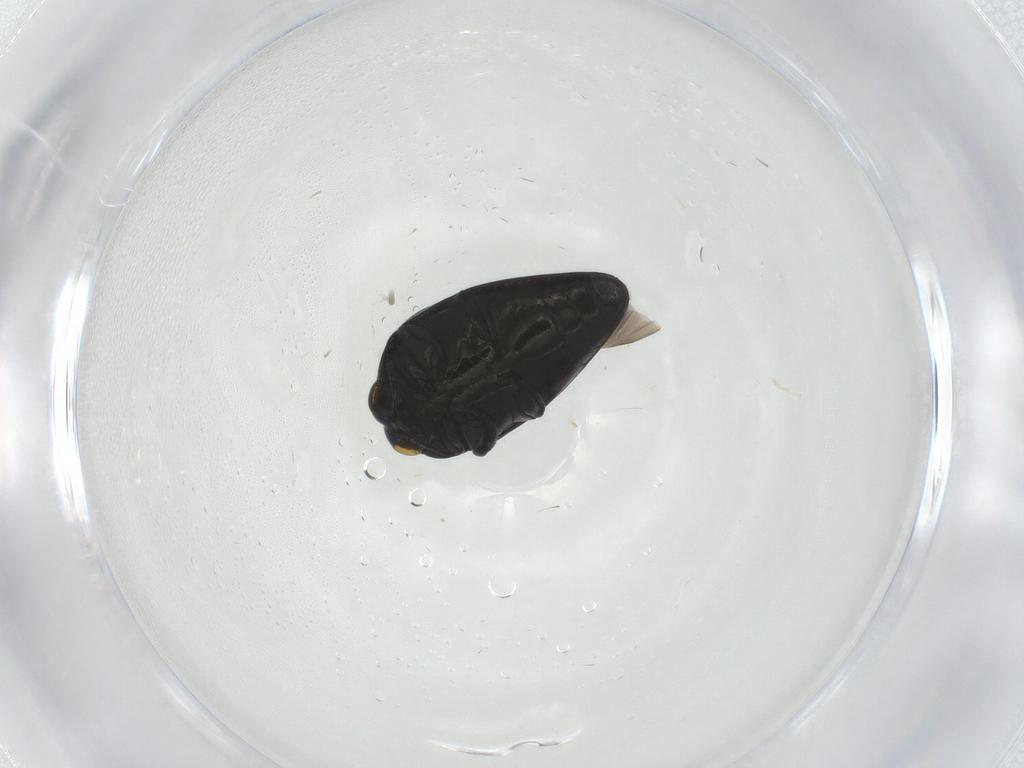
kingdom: Animalia
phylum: Arthropoda
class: Insecta
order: Coleoptera
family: Buprestidae
